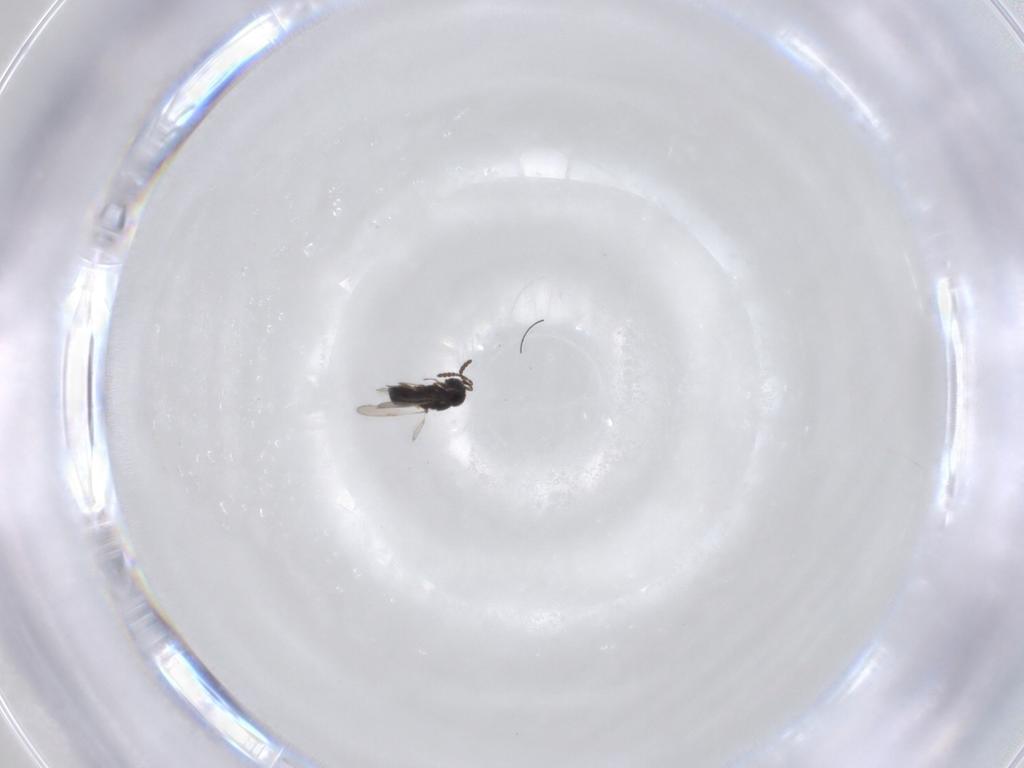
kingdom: Animalia
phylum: Arthropoda
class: Insecta
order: Hymenoptera
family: Scelionidae
